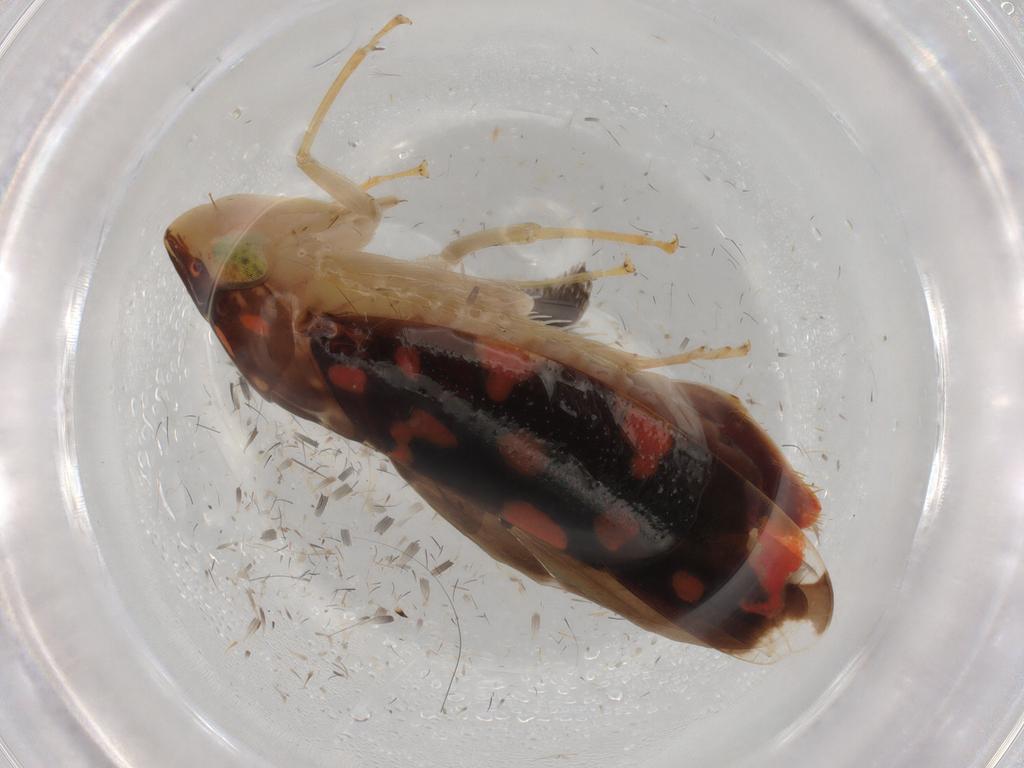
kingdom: Animalia
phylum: Arthropoda
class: Insecta
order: Hemiptera
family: Cicadellidae
